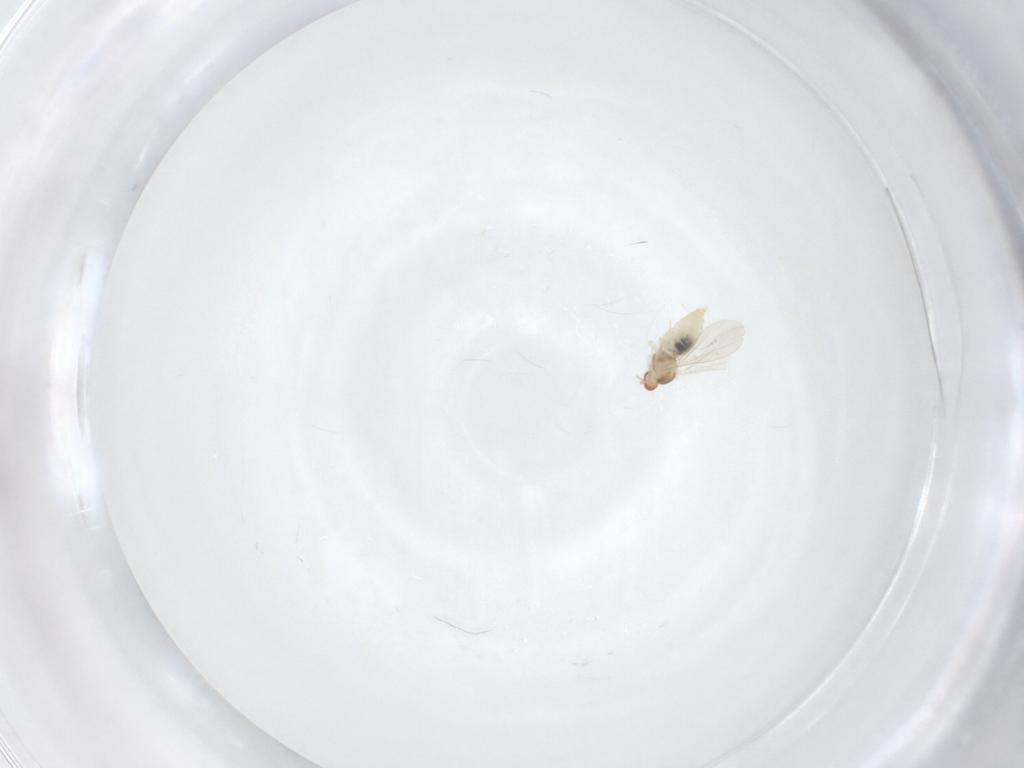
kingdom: Animalia
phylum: Arthropoda
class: Insecta
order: Diptera
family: Cecidomyiidae
